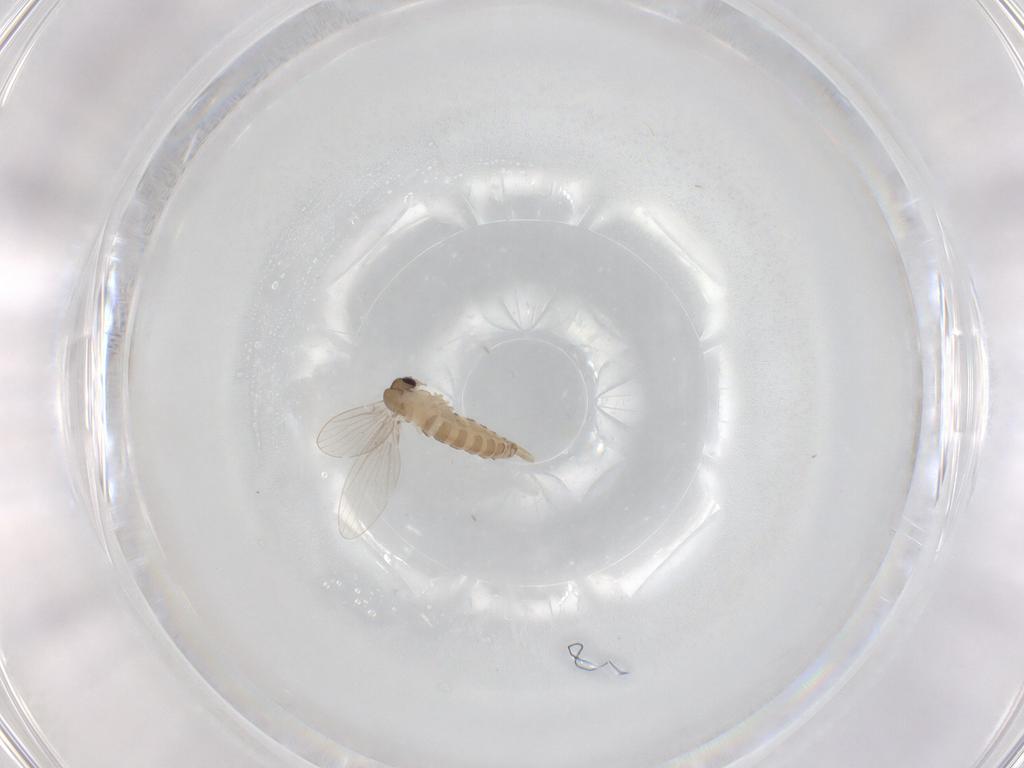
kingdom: Animalia
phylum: Arthropoda
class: Insecta
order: Diptera
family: Psychodidae
